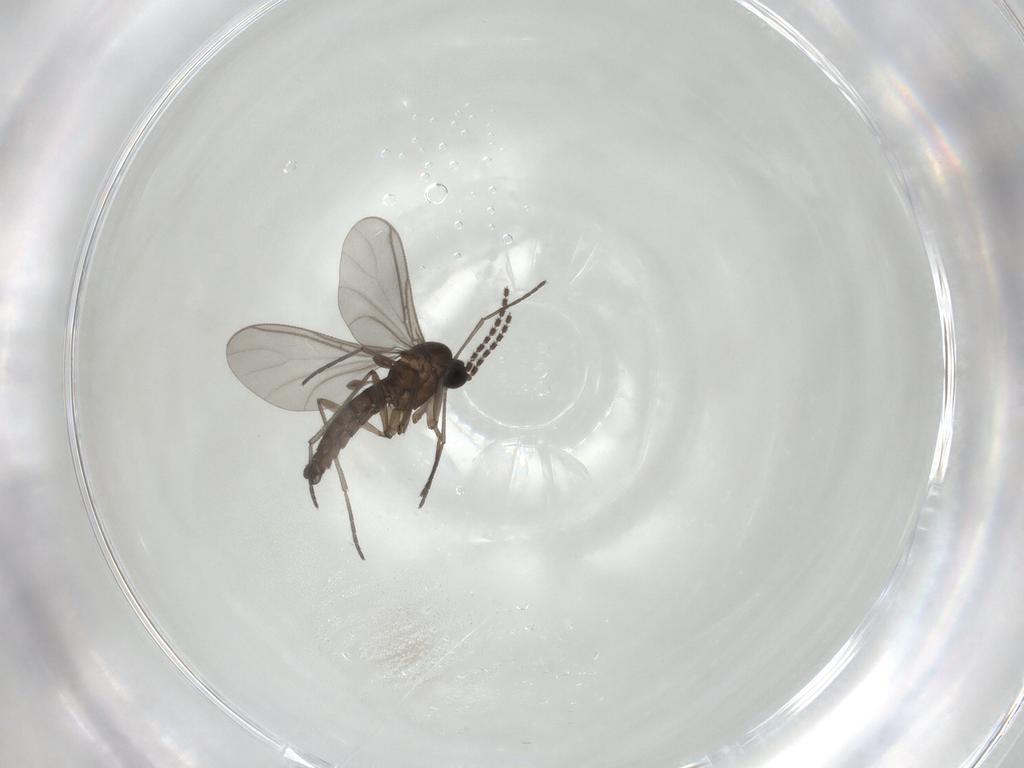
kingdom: Animalia
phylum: Arthropoda
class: Insecta
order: Diptera
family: Sciaridae
